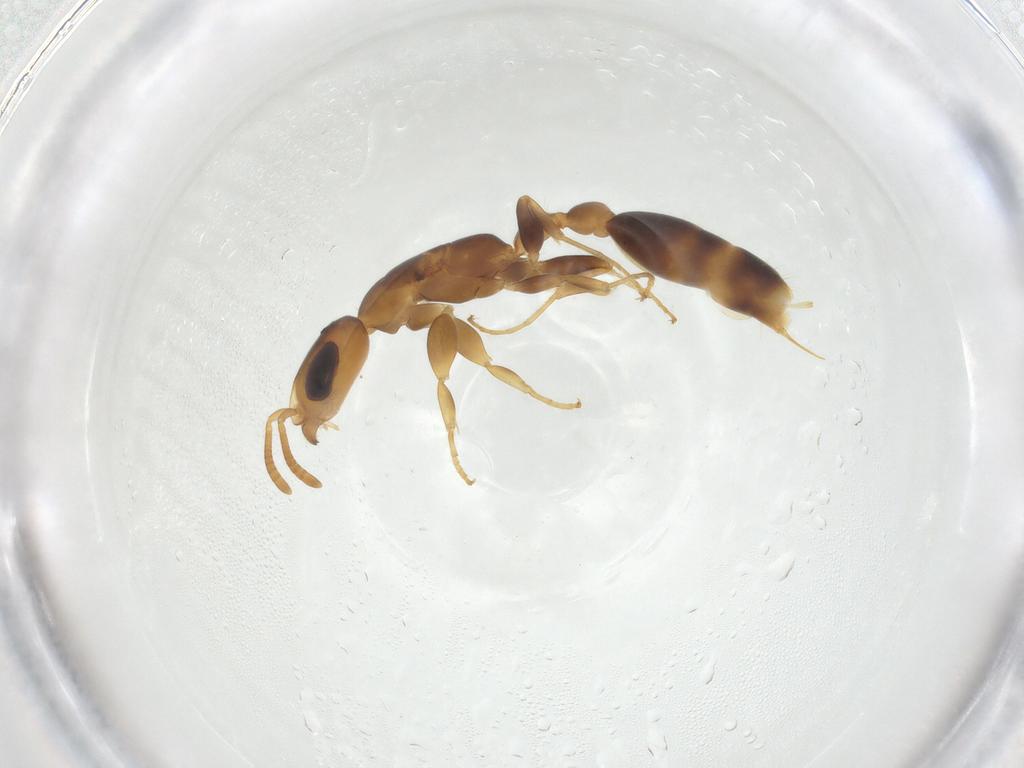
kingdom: Animalia
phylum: Arthropoda
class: Insecta
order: Hymenoptera
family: Formicidae
